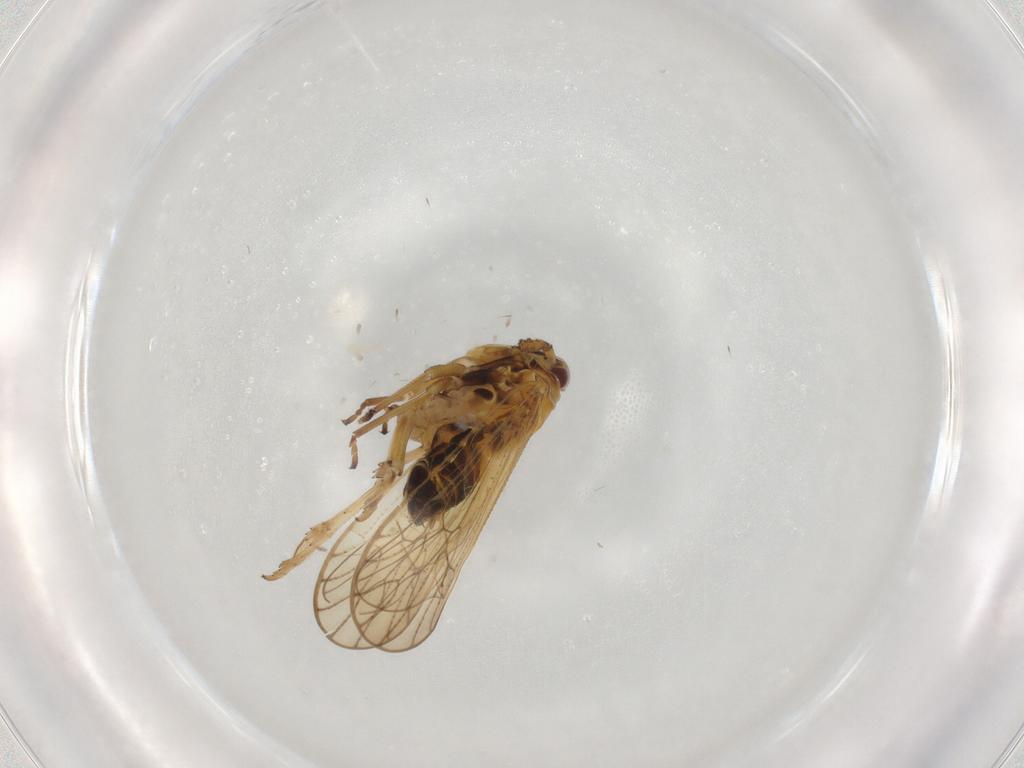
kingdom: Animalia
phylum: Arthropoda
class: Insecta
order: Hemiptera
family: Delphacidae
